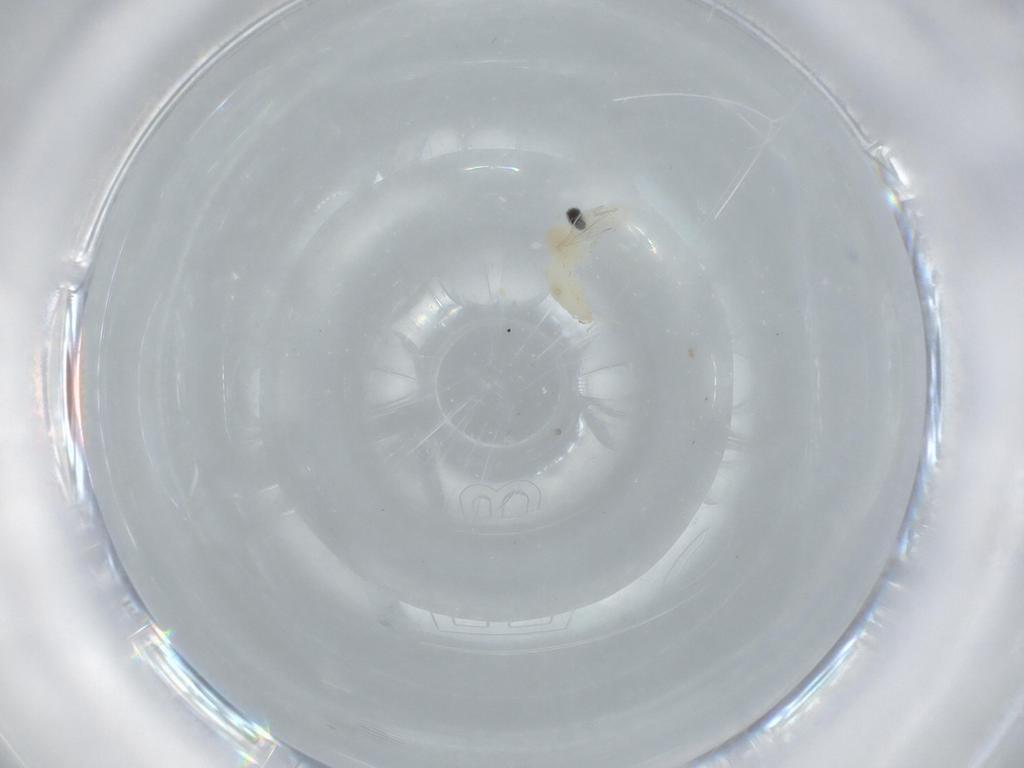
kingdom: Animalia
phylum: Arthropoda
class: Insecta
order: Diptera
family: Cecidomyiidae
